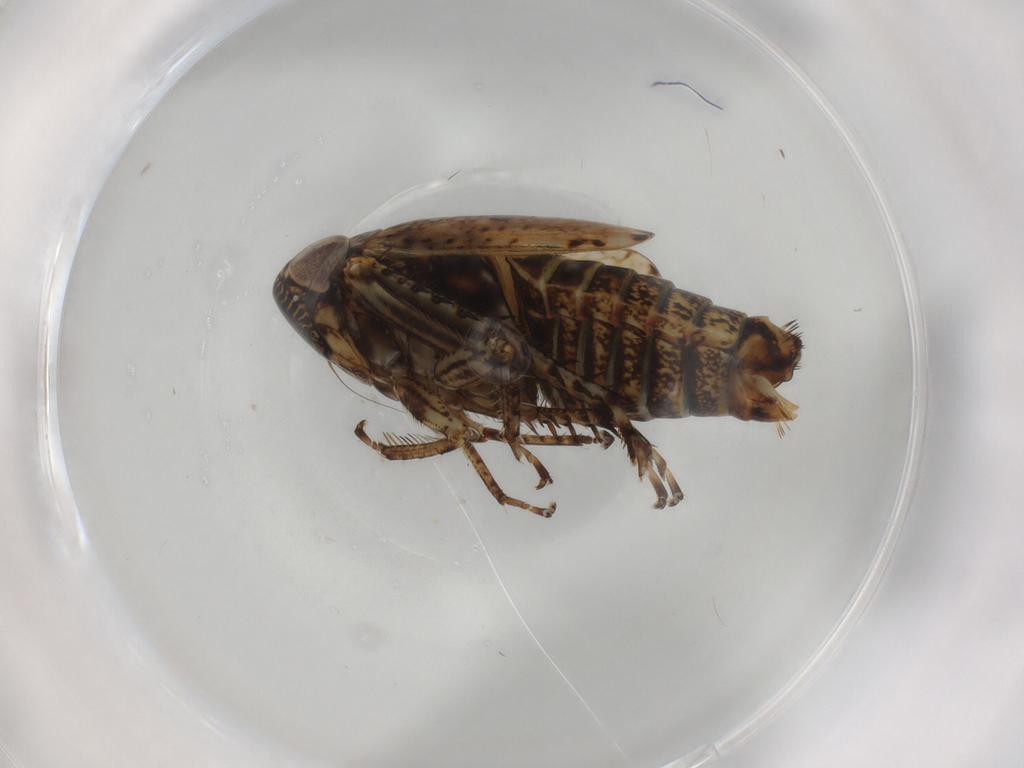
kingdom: Animalia
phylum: Arthropoda
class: Insecta
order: Hemiptera
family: Cicadellidae
